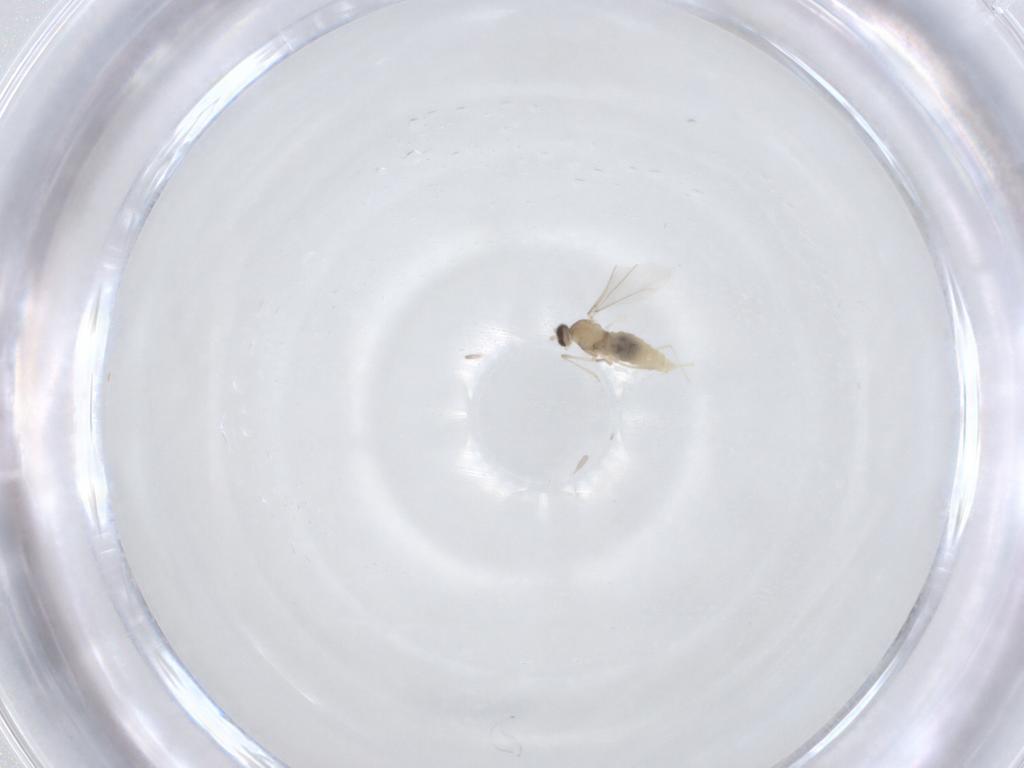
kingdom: Animalia
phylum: Arthropoda
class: Insecta
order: Diptera
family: Cecidomyiidae
